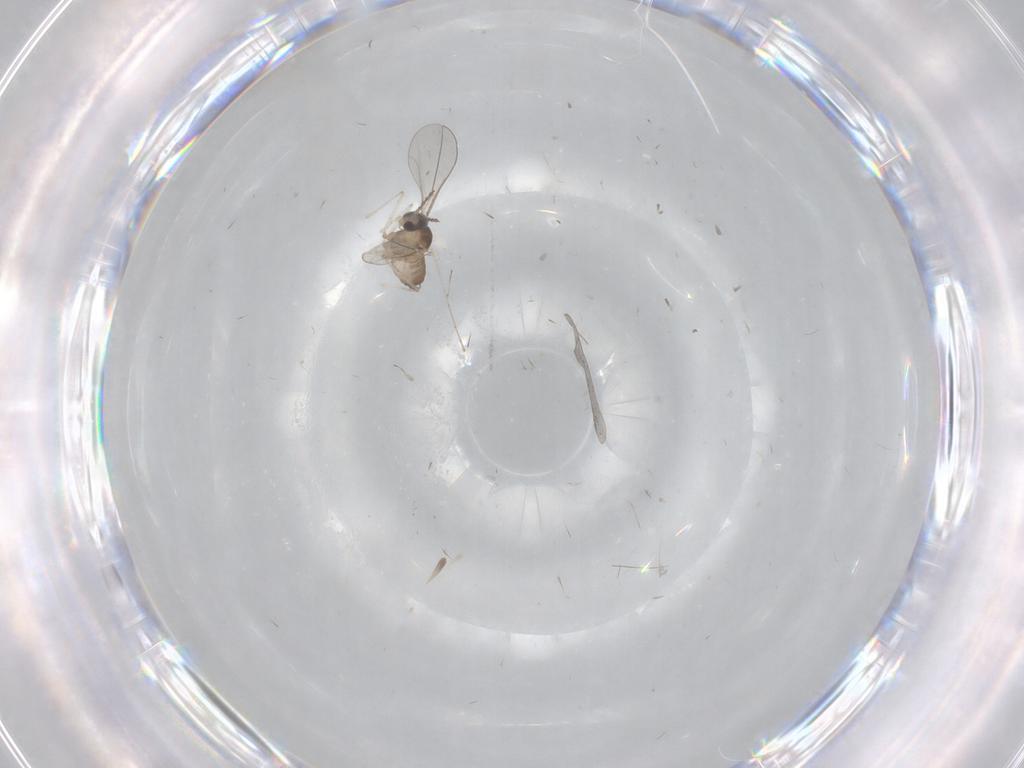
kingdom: Animalia
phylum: Arthropoda
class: Insecta
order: Diptera
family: Cecidomyiidae
